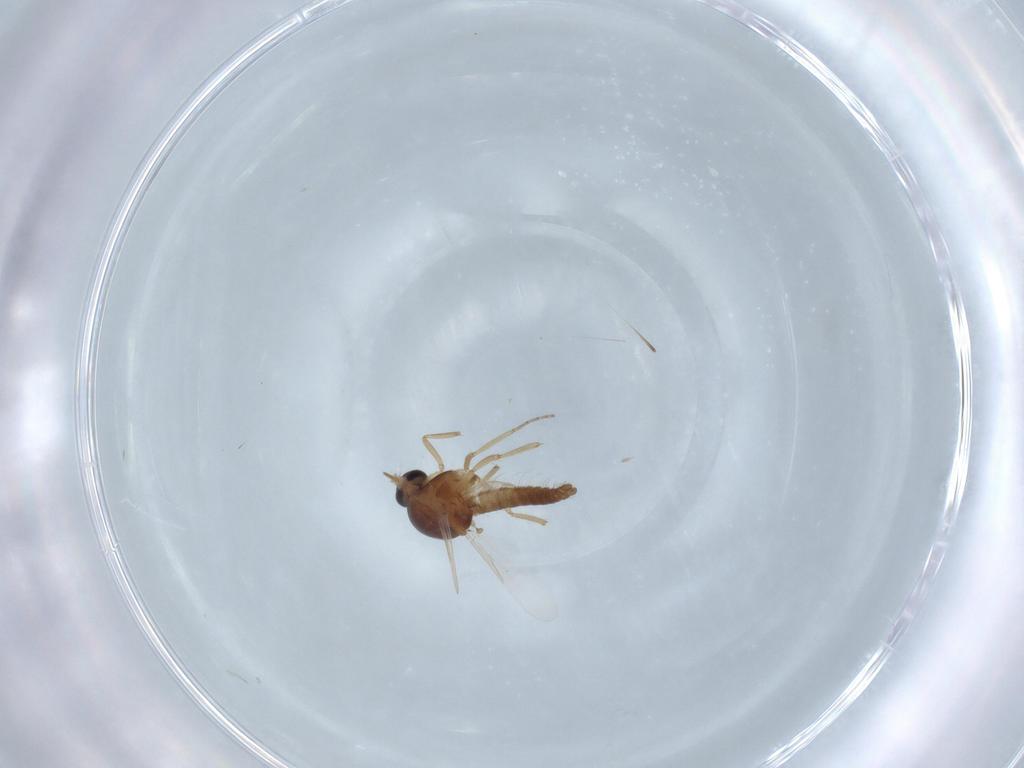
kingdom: Animalia
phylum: Arthropoda
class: Insecta
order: Diptera
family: Ceratopogonidae
